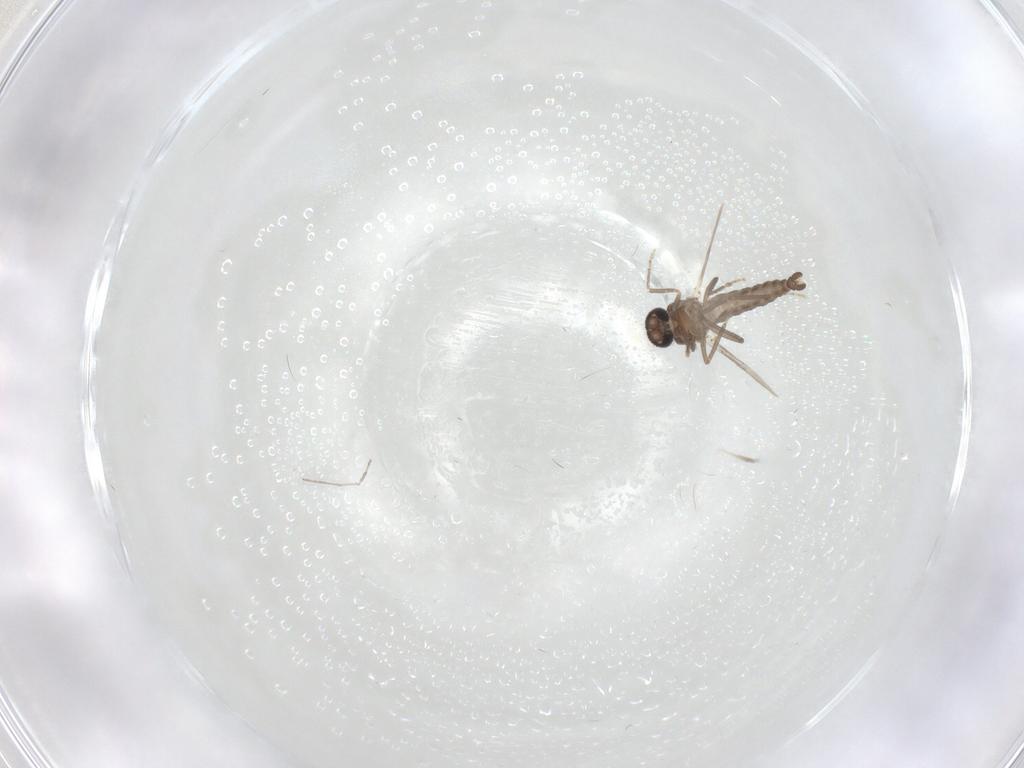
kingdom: Animalia
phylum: Arthropoda
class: Insecta
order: Diptera
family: Ceratopogonidae
